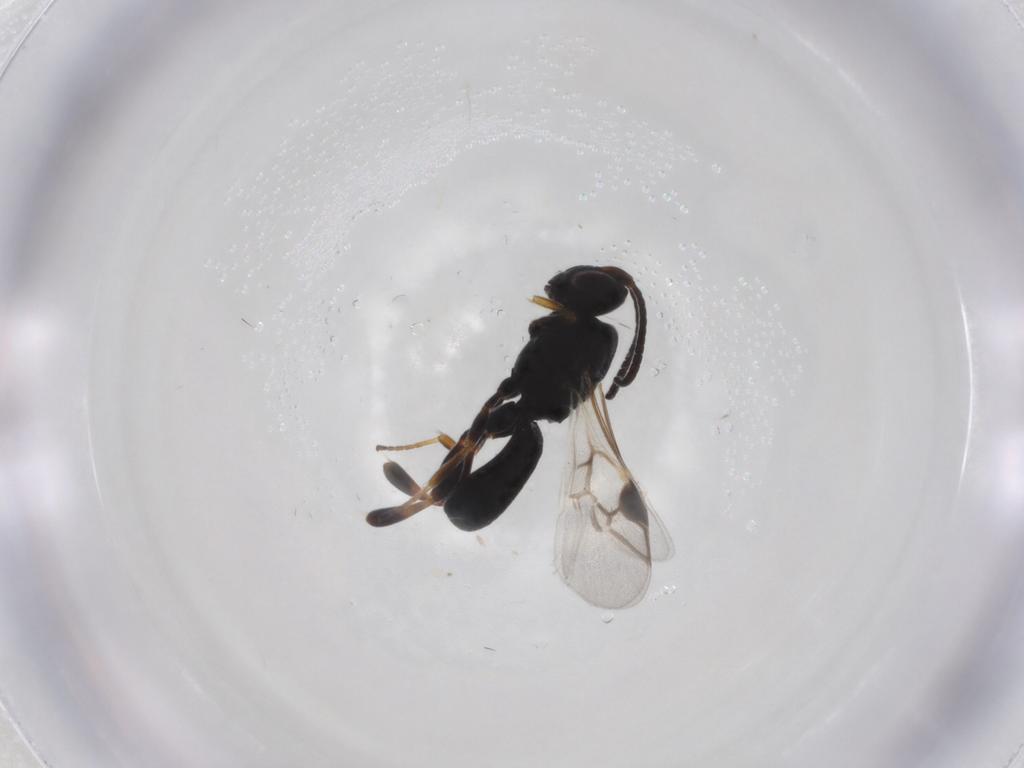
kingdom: Animalia
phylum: Arthropoda
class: Insecta
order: Hymenoptera
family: Braconidae
